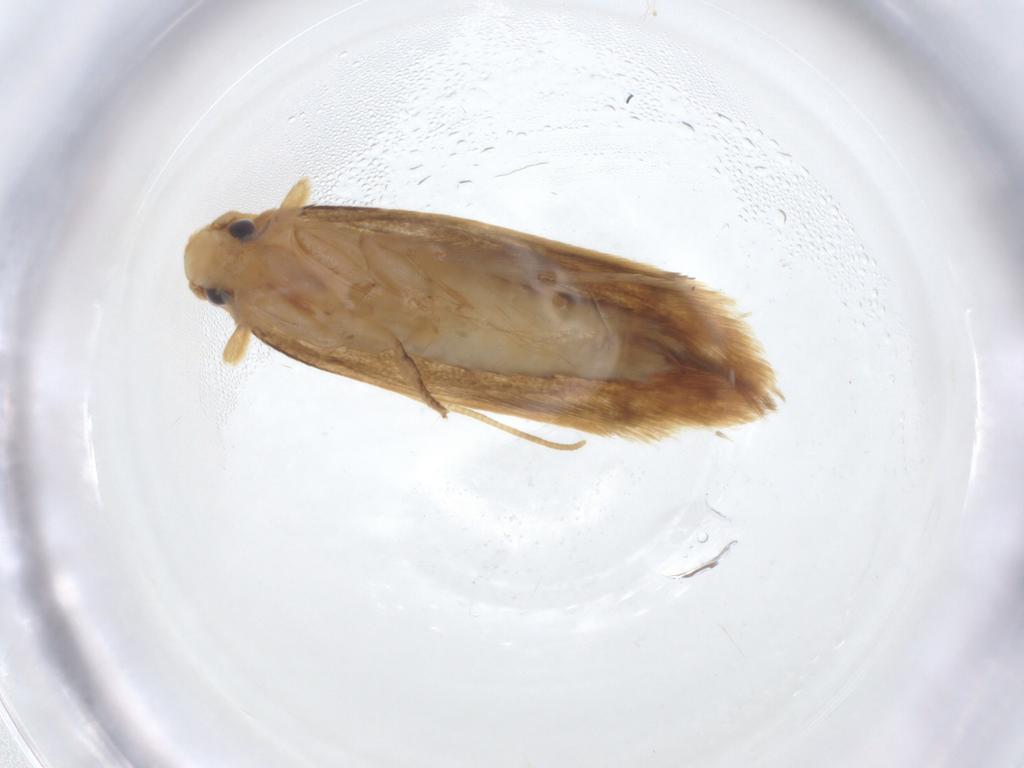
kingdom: Animalia
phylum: Arthropoda
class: Insecta
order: Lepidoptera
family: Tineidae
